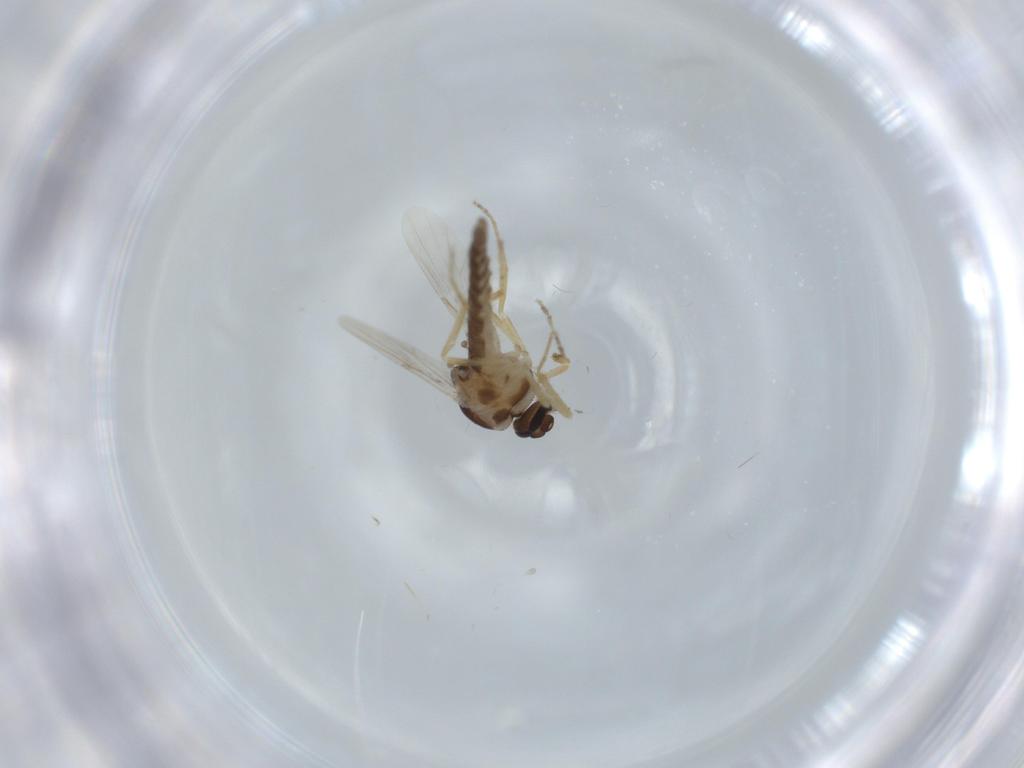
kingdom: Animalia
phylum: Arthropoda
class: Insecta
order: Diptera
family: Ceratopogonidae
